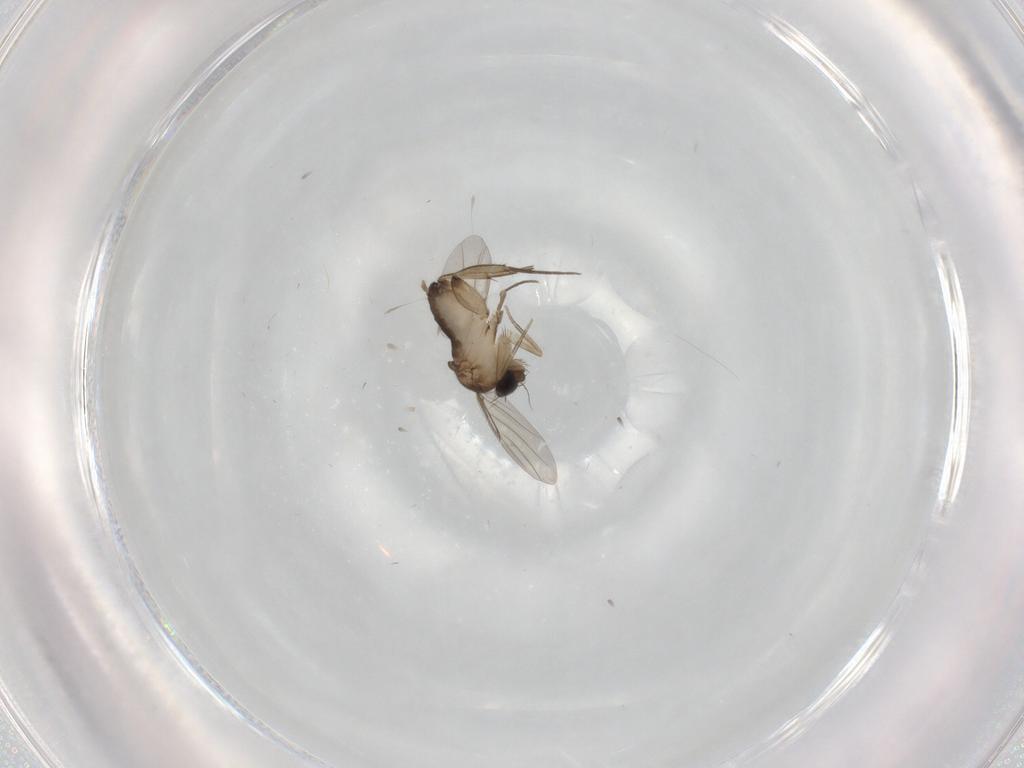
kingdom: Animalia
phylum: Arthropoda
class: Insecta
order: Diptera
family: Phoridae
